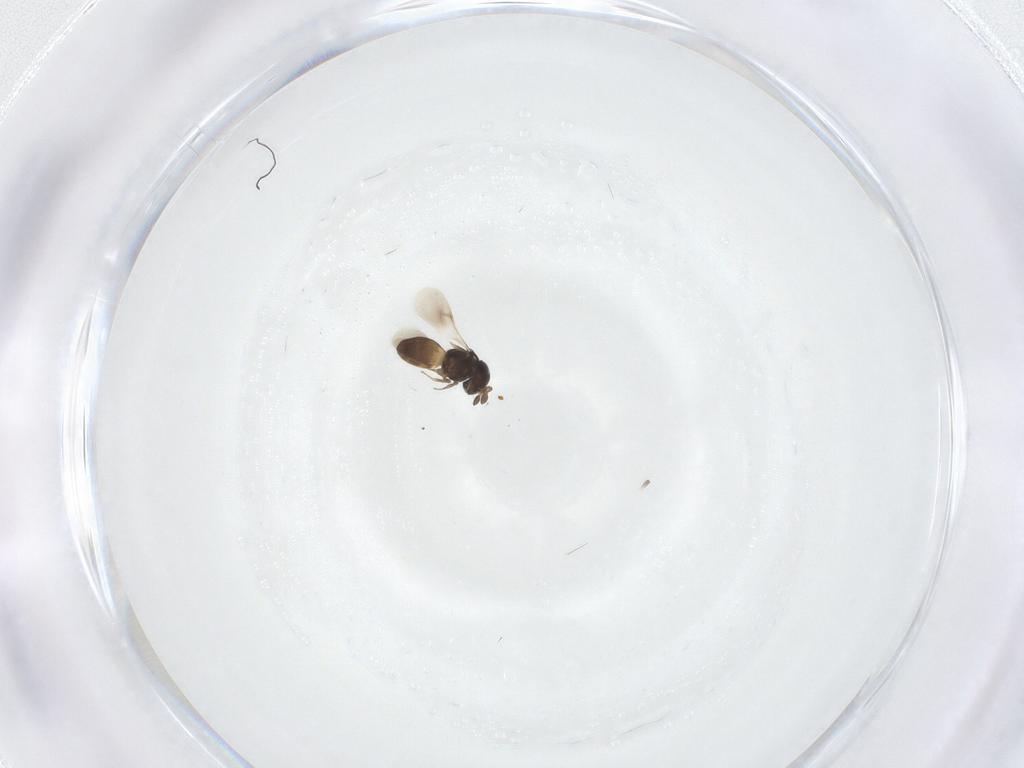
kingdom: Animalia
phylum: Arthropoda
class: Insecta
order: Hymenoptera
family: Scelionidae
